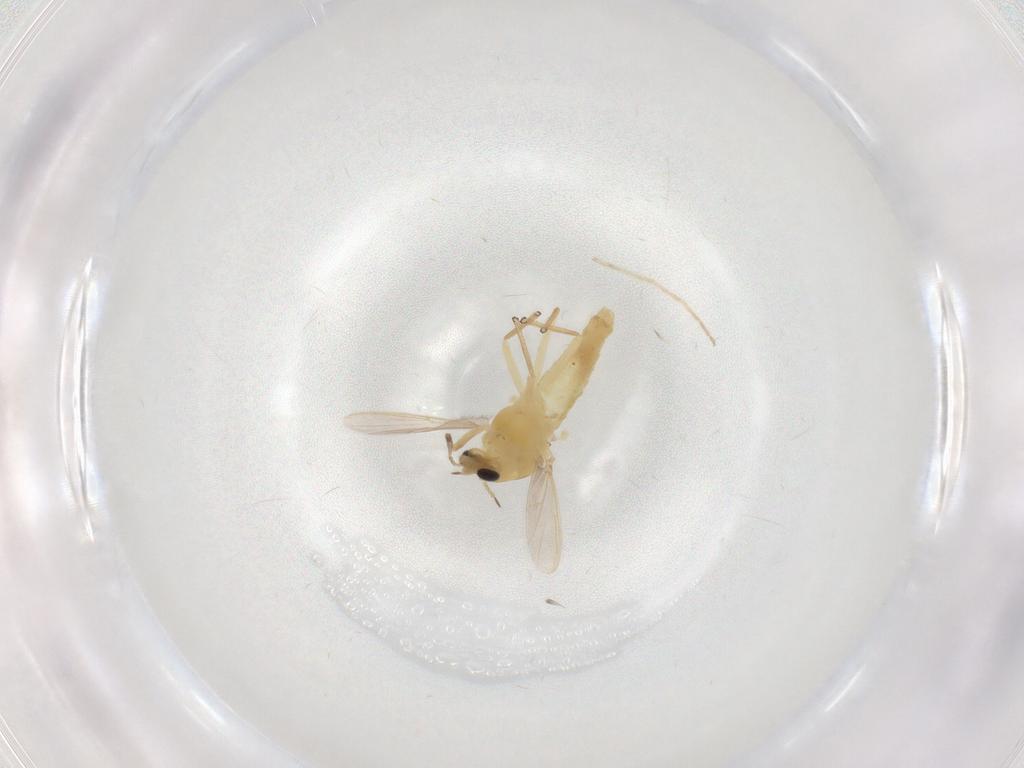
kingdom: Animalia
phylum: Arthropoda
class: Insecta
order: Diptera
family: Chironomidae
